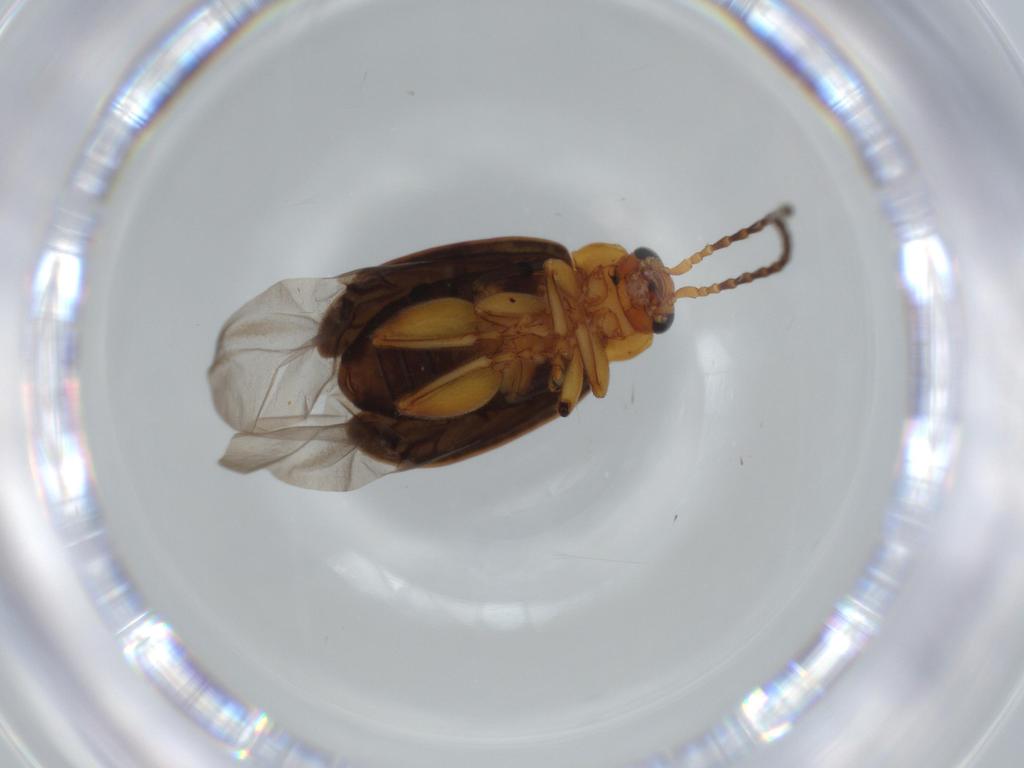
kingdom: Animalia
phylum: Arthropoda
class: Insecta
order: Coleoptera
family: Chrysomelidae
